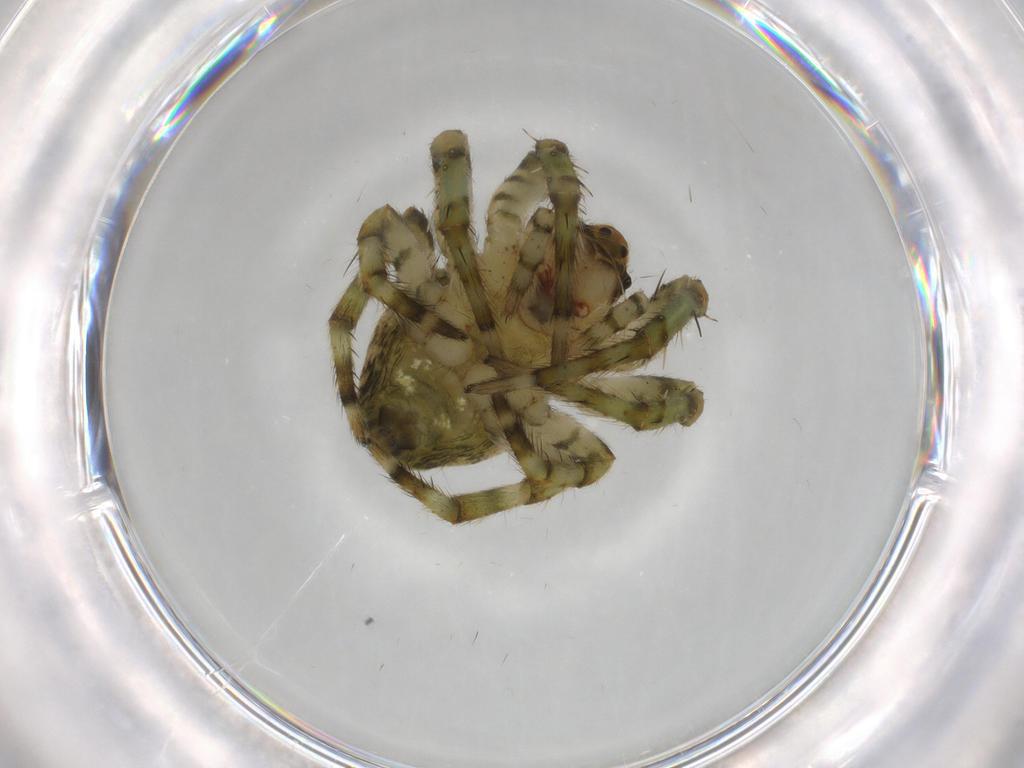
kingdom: Animalia
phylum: Arthropoda
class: Arachnida
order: Araneae
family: Araneidae
